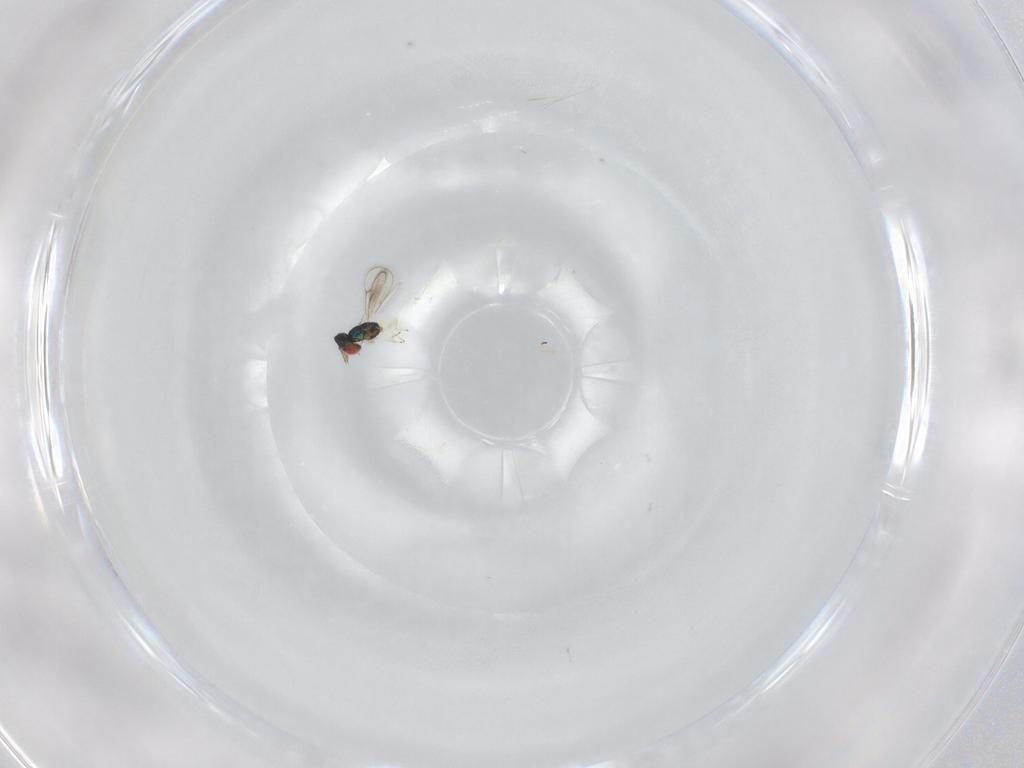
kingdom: Animalia
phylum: Arthropoda
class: Insecta
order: Hymenoptera
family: Eulophidae
